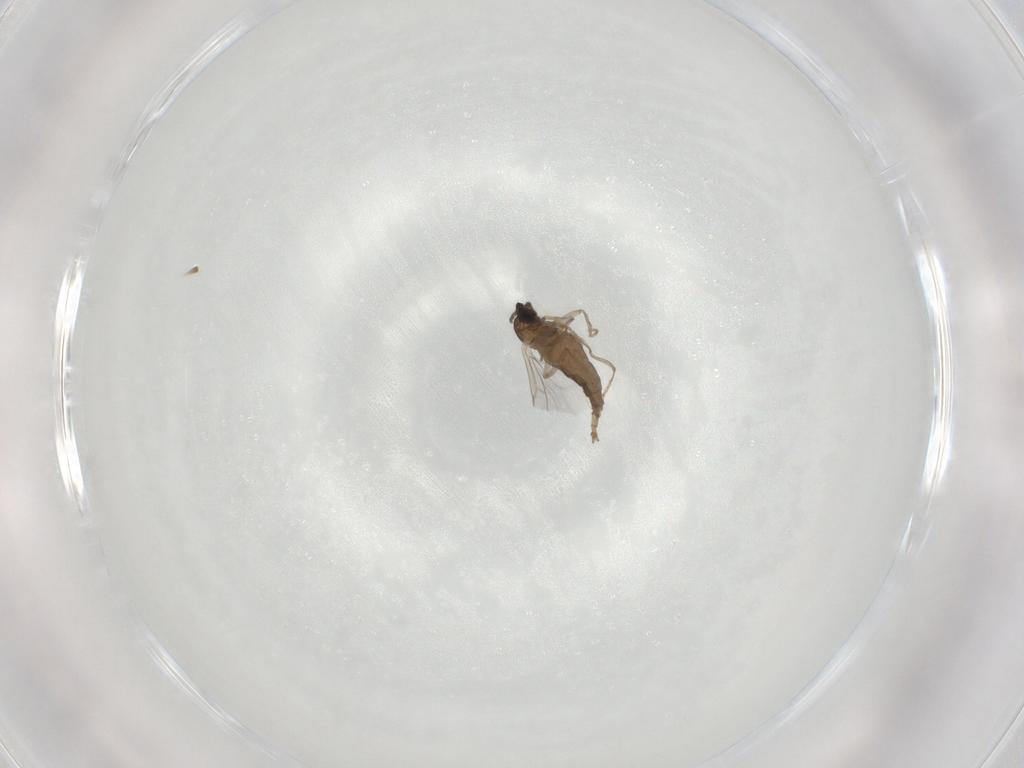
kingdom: Animalia
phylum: Arthropoda
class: Insecta
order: Diptera
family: Cecidomyiidae
